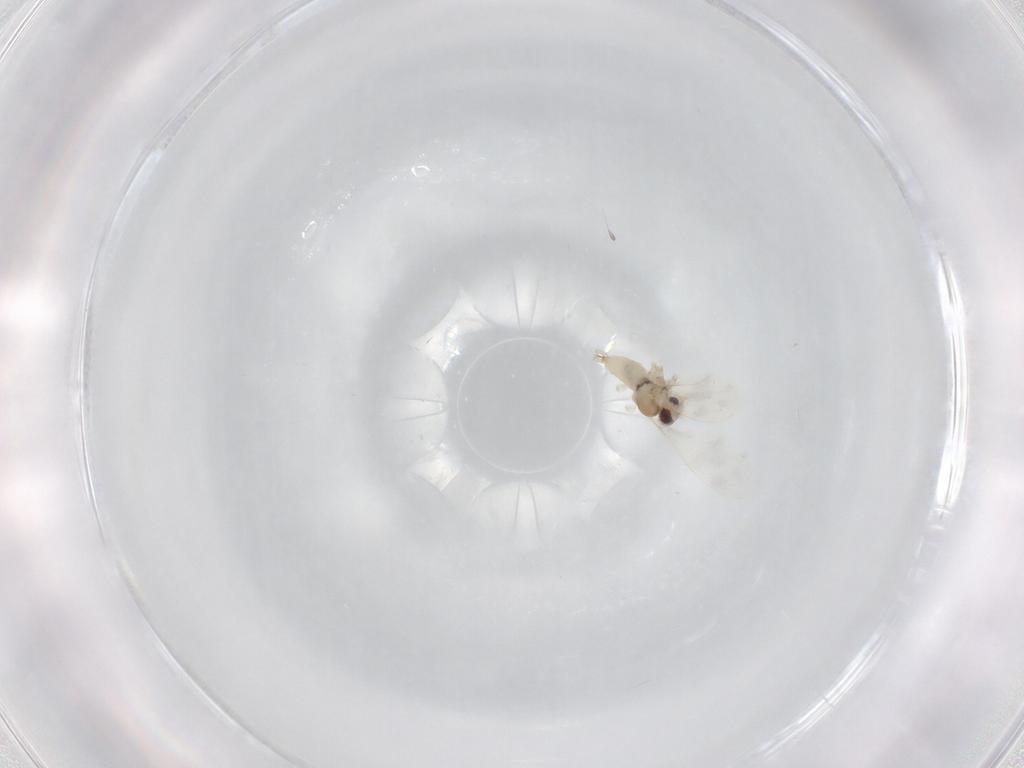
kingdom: Animalia
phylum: Arthropoda
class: Insecta
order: Diptera
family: Cecidomyiidae
